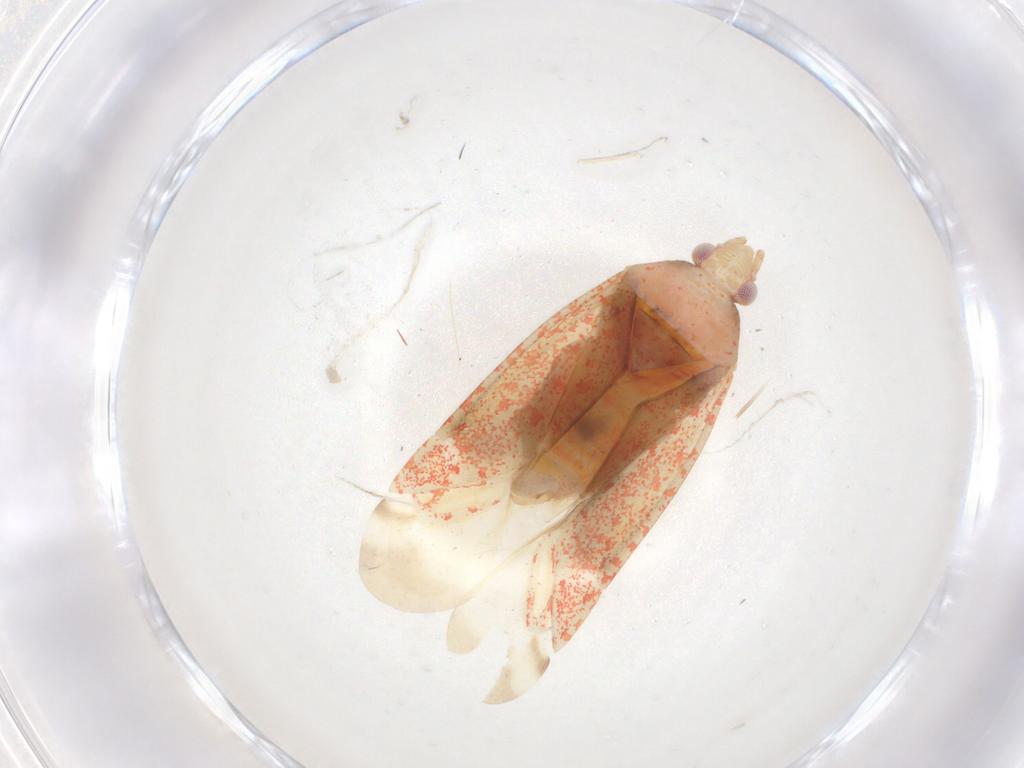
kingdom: Animalia
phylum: Arthropoda
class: Insecta
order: Hemiptera
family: Miridae
